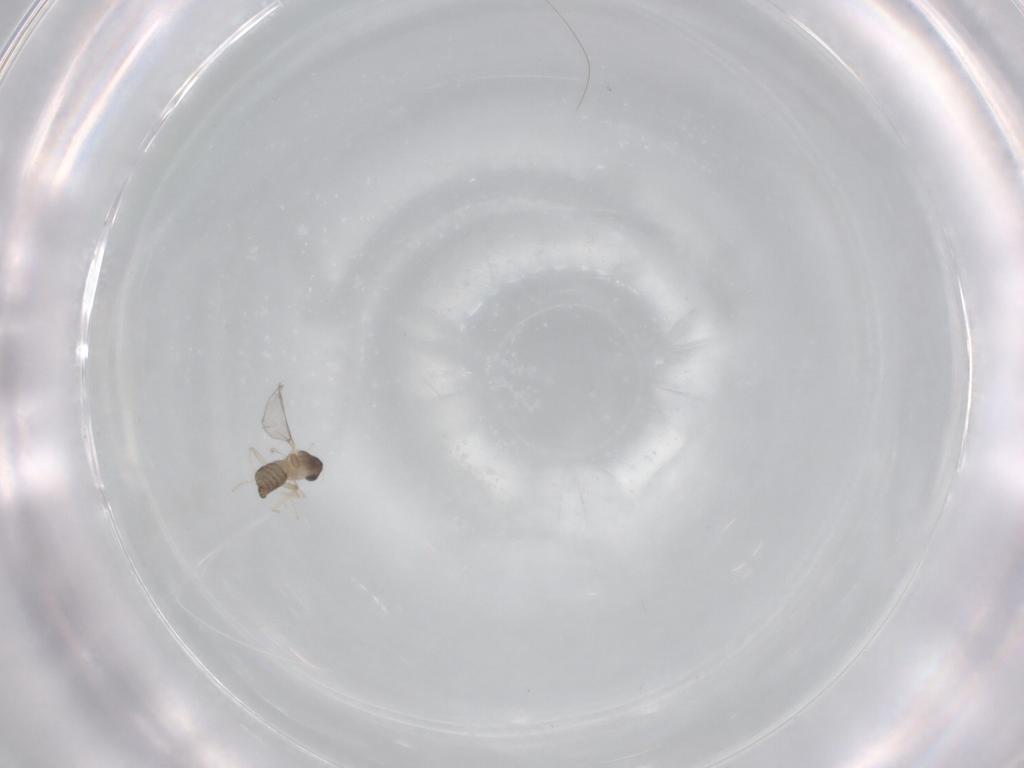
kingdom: Animalia
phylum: Arthropoda
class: Insecta
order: Diptera
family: Cecidomyiidae
